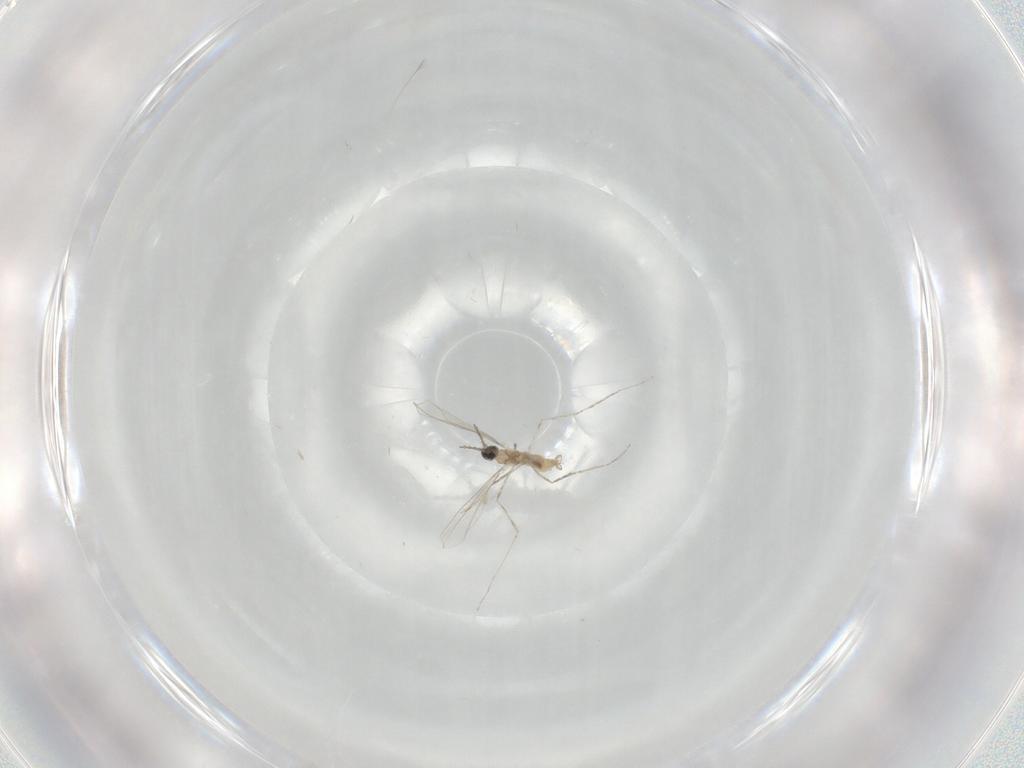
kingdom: Animalia
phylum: Arthropoda
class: Insecta
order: Diptera
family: Cecidomyiidae
